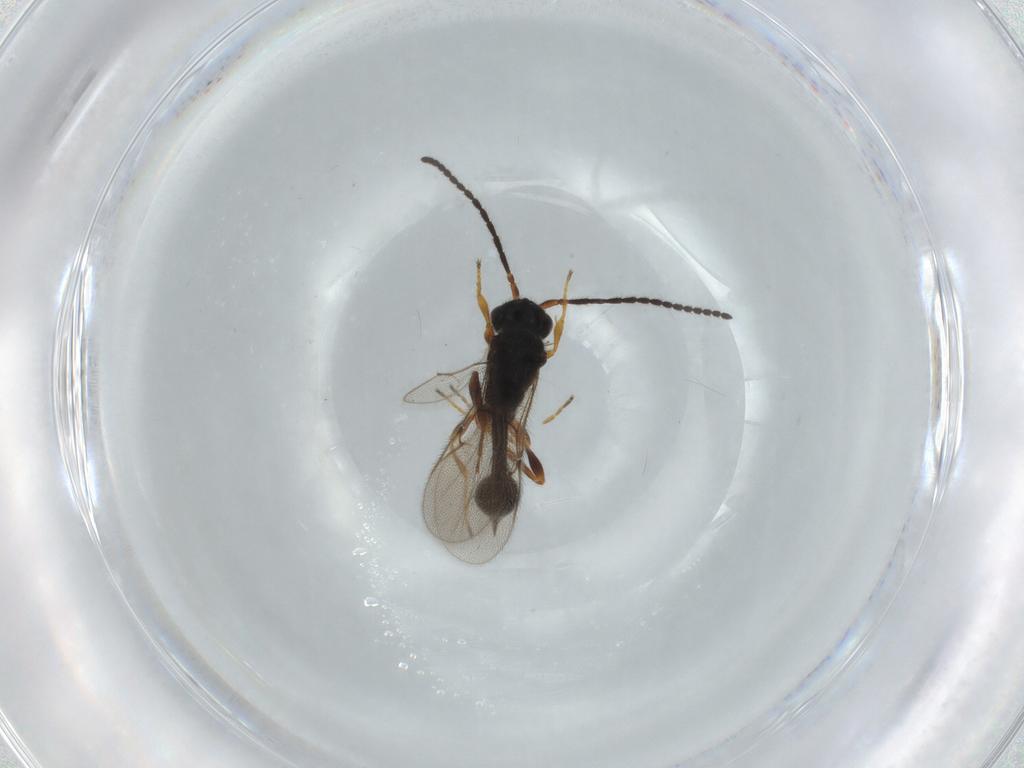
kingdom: Animalia
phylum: Arthropoda
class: Insecta
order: Hymenoptera
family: Diapriidae
